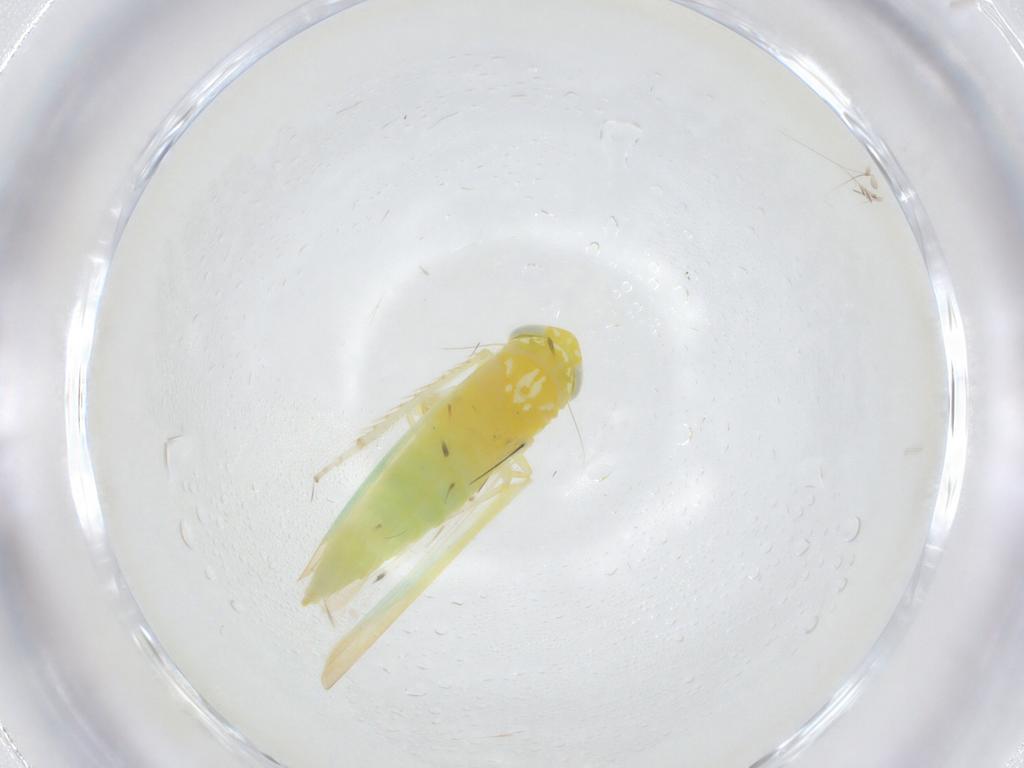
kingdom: Animalia
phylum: Arthropoda
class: Insecta
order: Hemiptera
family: Cicadellidae
